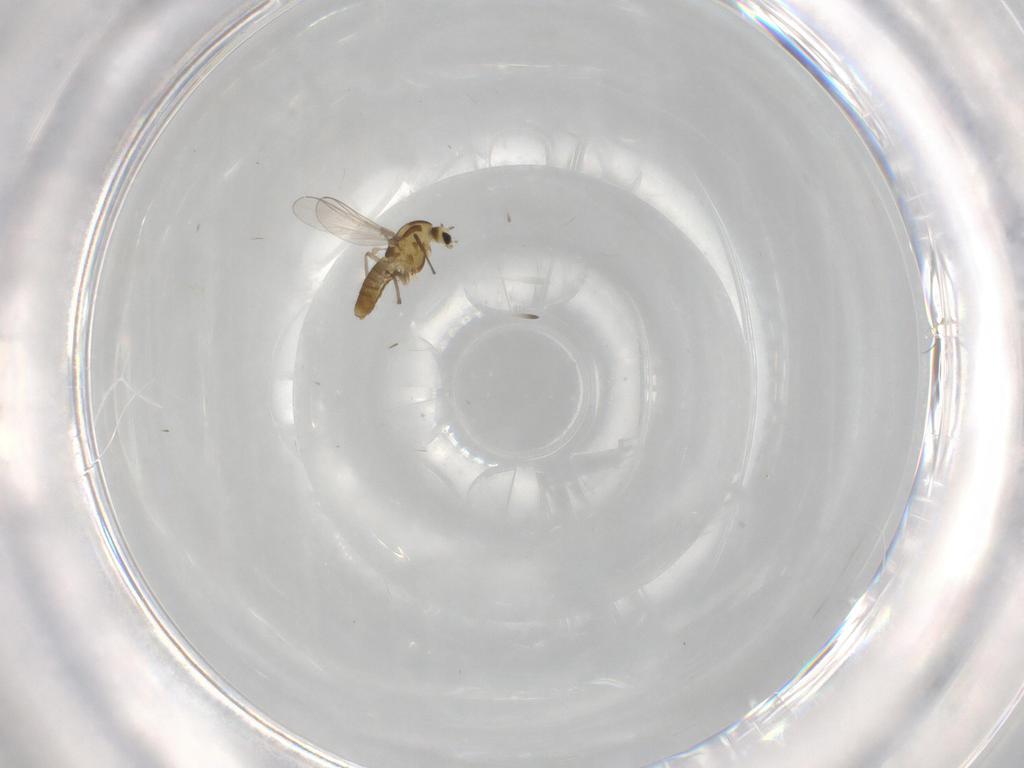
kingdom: Animalia
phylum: Arthropoda
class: Insecta
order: Diptera
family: Chironomidae
